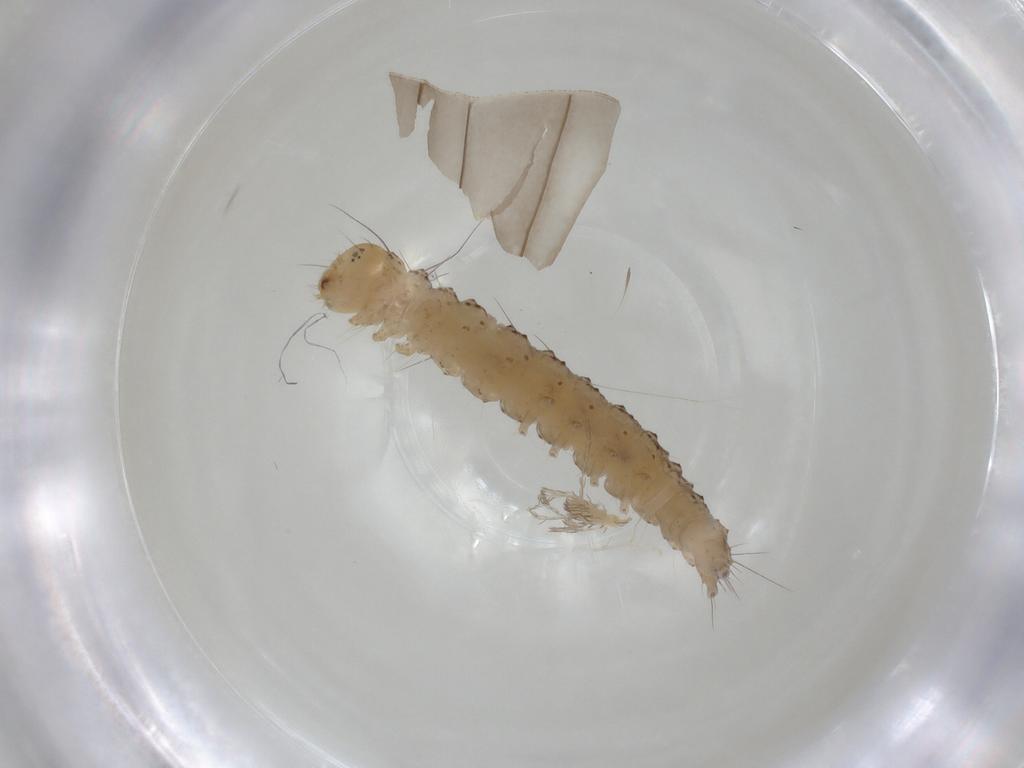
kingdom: Animalia
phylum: Arthropoda
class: Insecta
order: Lepidoptera
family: Immidae
